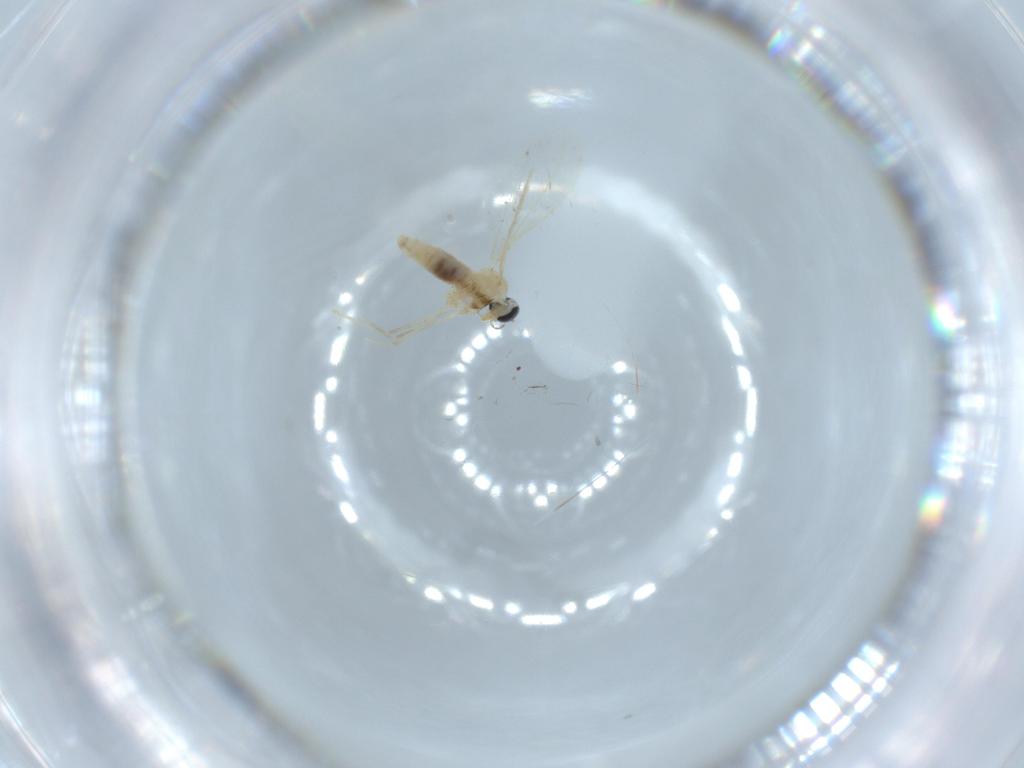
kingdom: Animalia
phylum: Arthropoda
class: Insecta
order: Diptera
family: Cecidomyiidae
